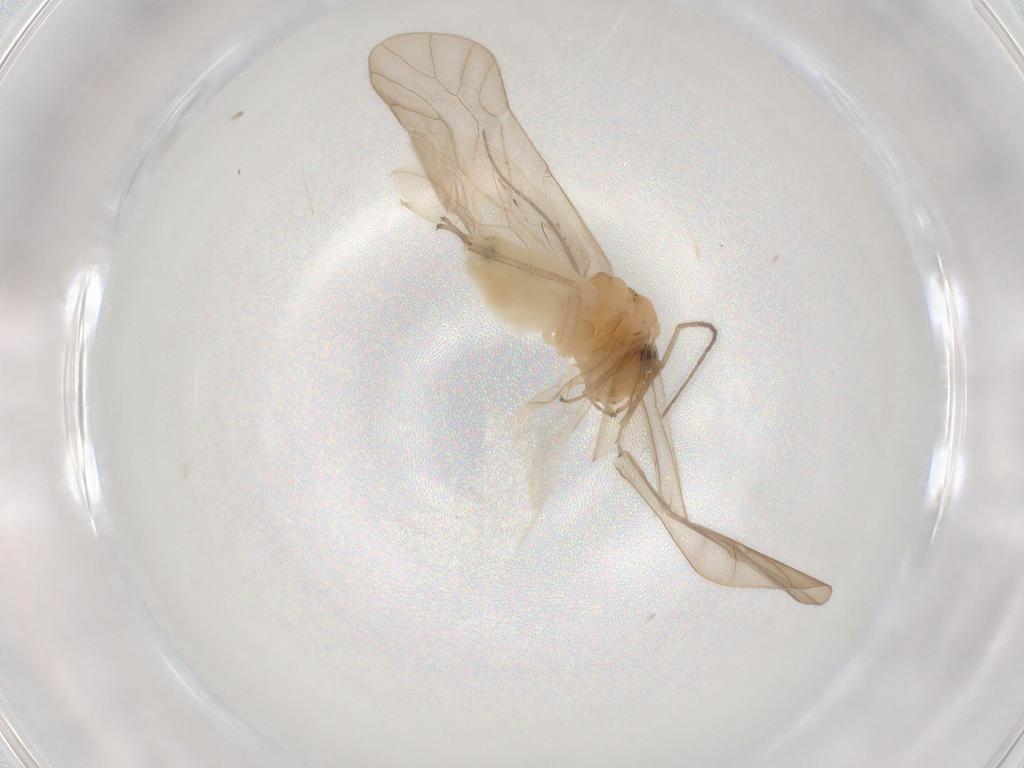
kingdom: Animalia
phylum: Arthropoda
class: Insecta
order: Psocodea
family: Caeciliusidae
